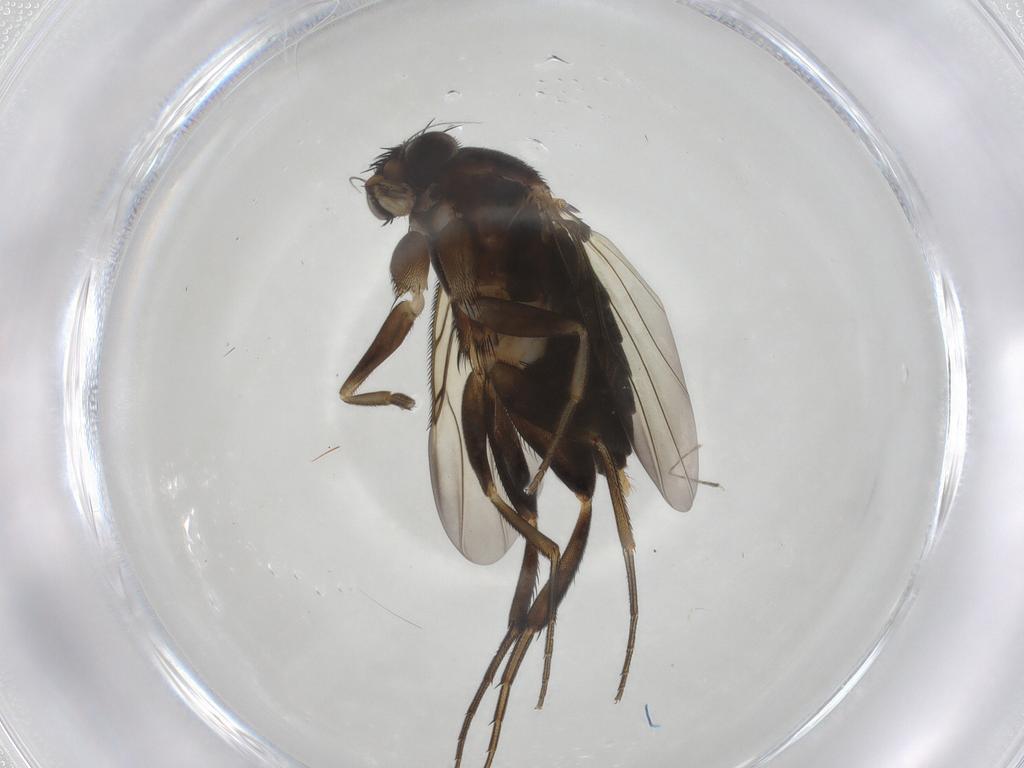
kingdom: Animalia
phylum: Arthropoda
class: Insecta
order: Diptera
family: Phoridae
